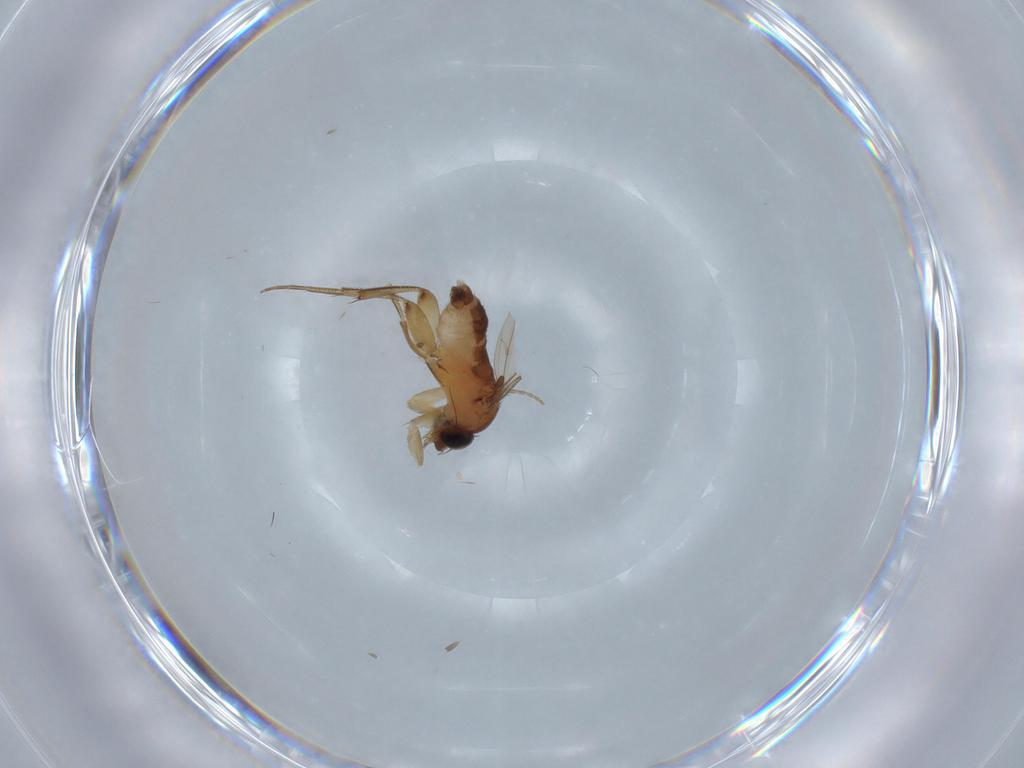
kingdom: Animalia
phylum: Arthropoda
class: Insecta
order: Diptera
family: Phoridae
